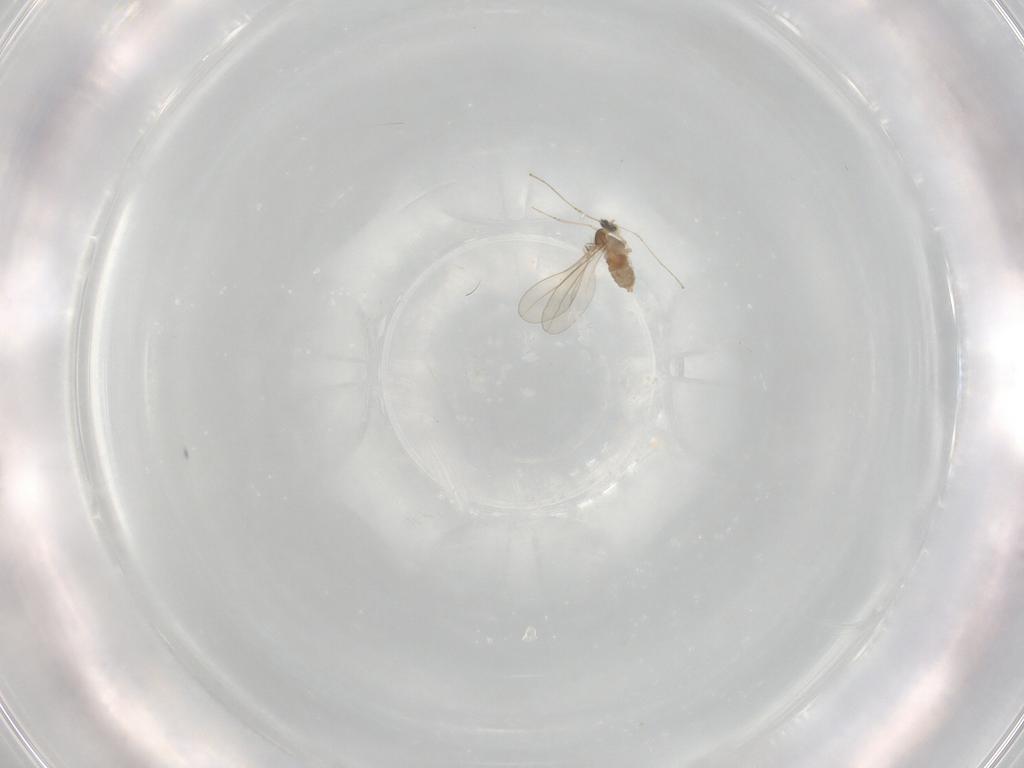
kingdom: Animalia
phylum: Arthropoda
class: Insecta
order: Diptera
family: Cecidomyiidae
